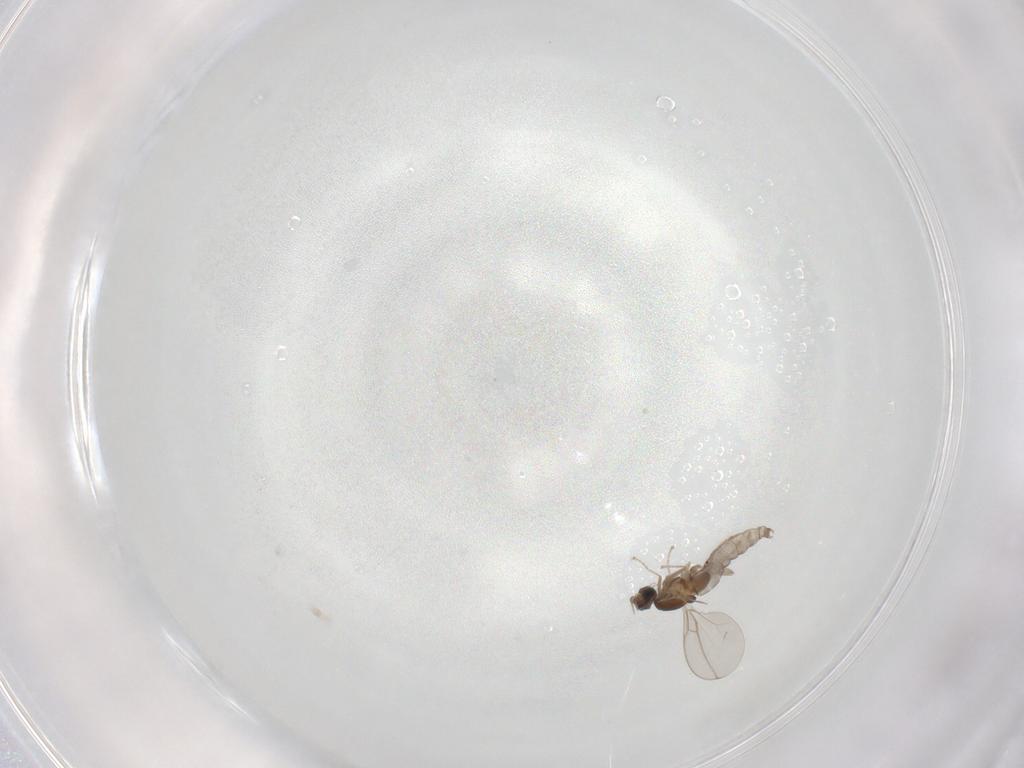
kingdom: Animalia
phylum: Arthropoda
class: Insecta
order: Diptera
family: Cecidomyiidae
